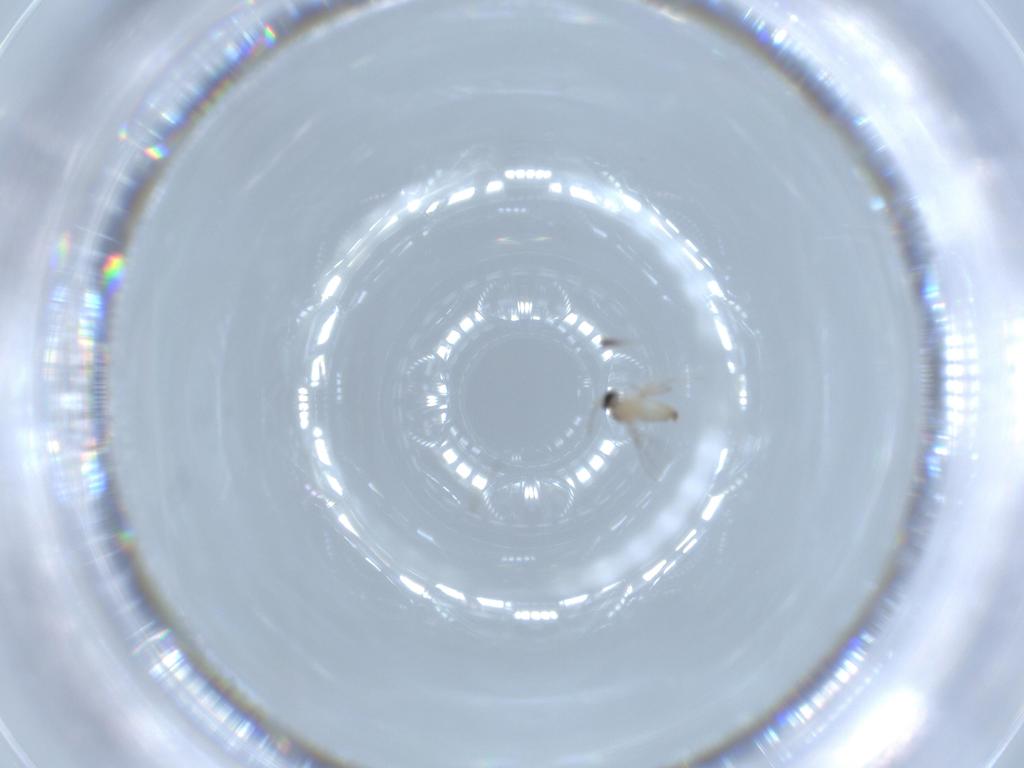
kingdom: Animalia
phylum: Arthropoda
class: Insecta
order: Diptera
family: Cecidomyiidae
